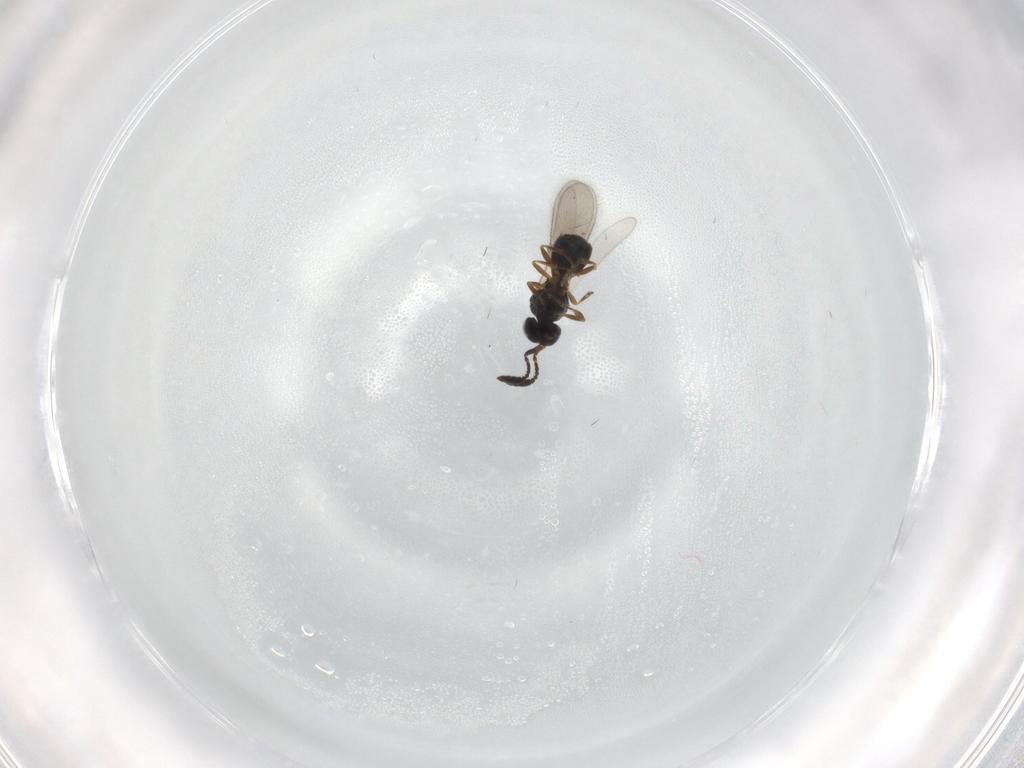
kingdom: Animalia
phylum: Arthropoda
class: Insecta
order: Hymenoptera
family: Scelionidae
